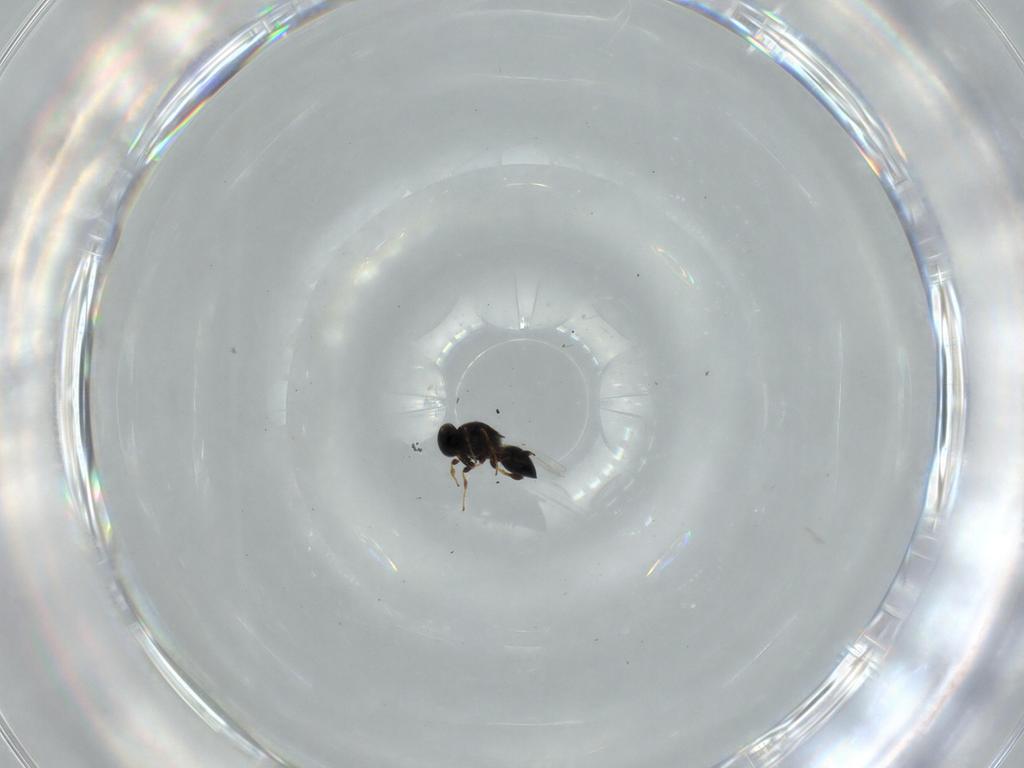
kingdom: Animalia
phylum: Arthropoda
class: Insecta
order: Hymenoptera
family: Platygastridae
